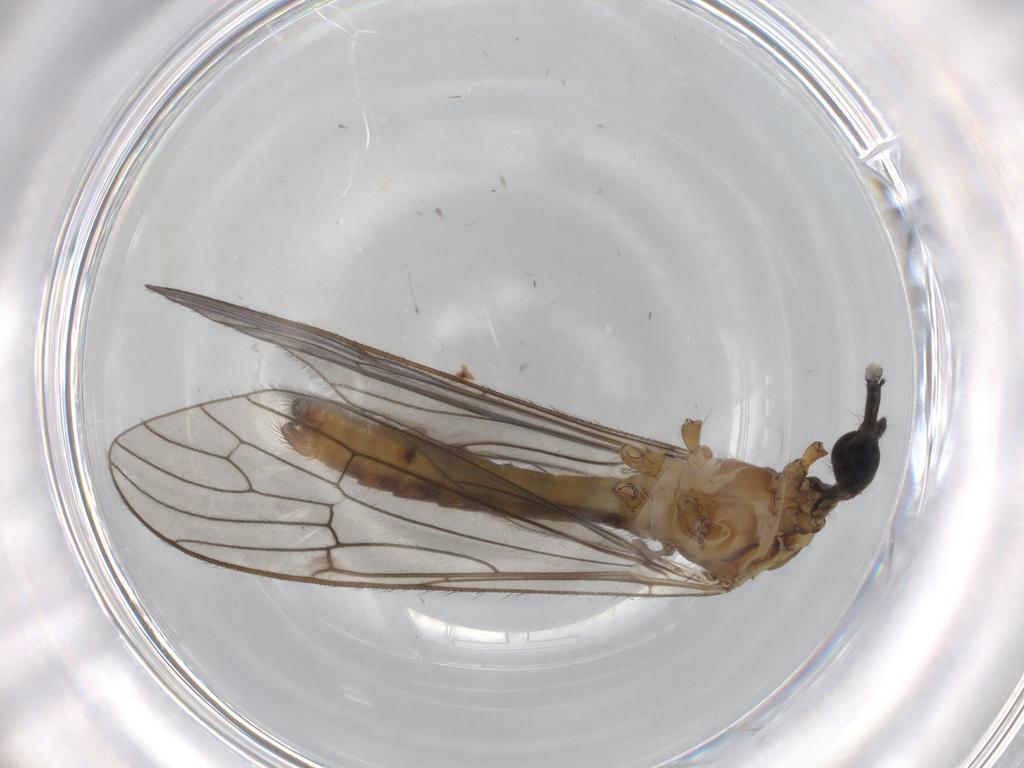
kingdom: Animalia
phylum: Arthropoda
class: Insecta
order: Diptera
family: Limoniidae
